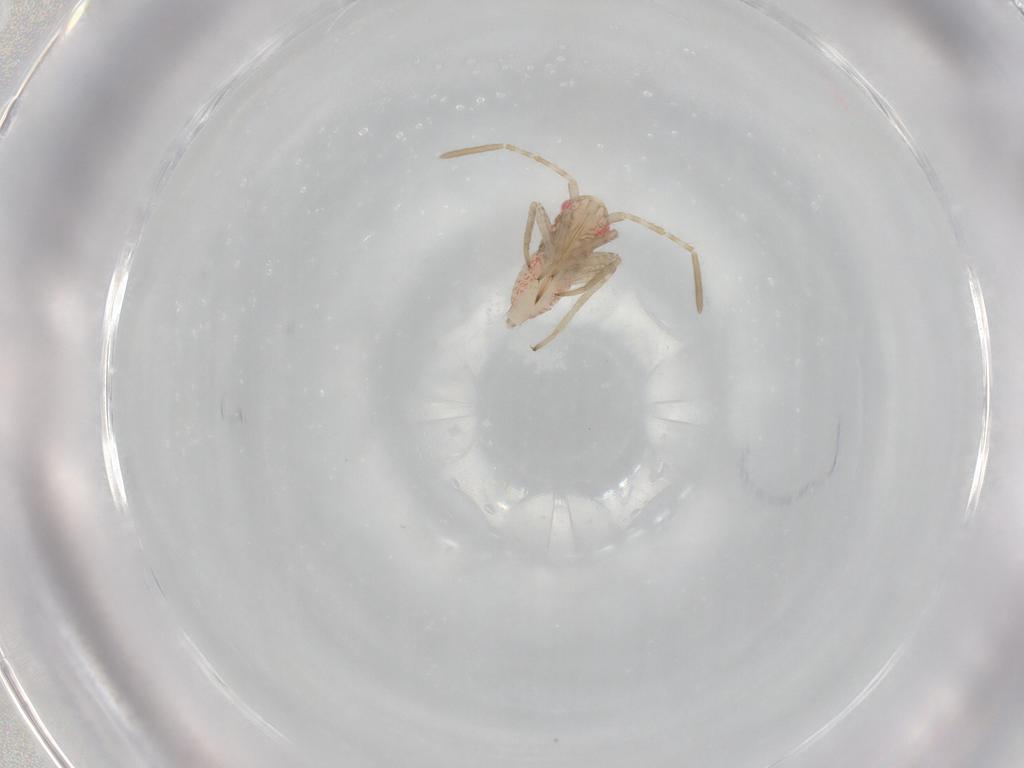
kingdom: Animalia
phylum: Arthropoda
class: Insecta
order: Hemiptera
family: Miridae
